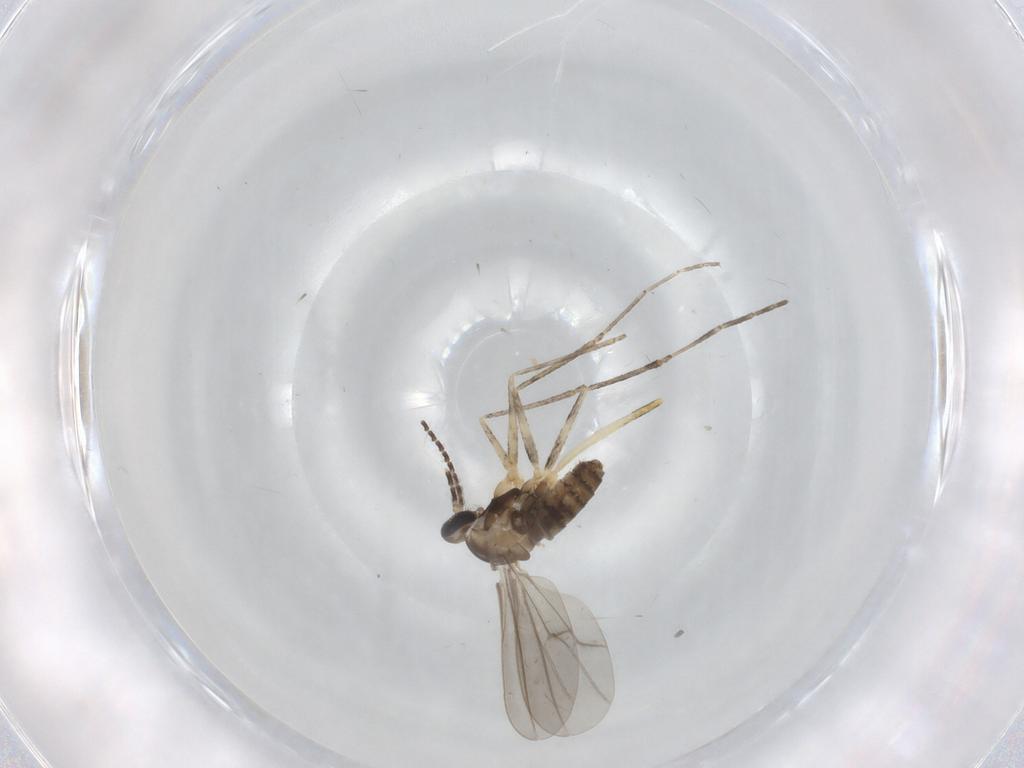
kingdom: Animalia
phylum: Arthropoda
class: Insecta
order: Diptera
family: Cecidomyiidae
